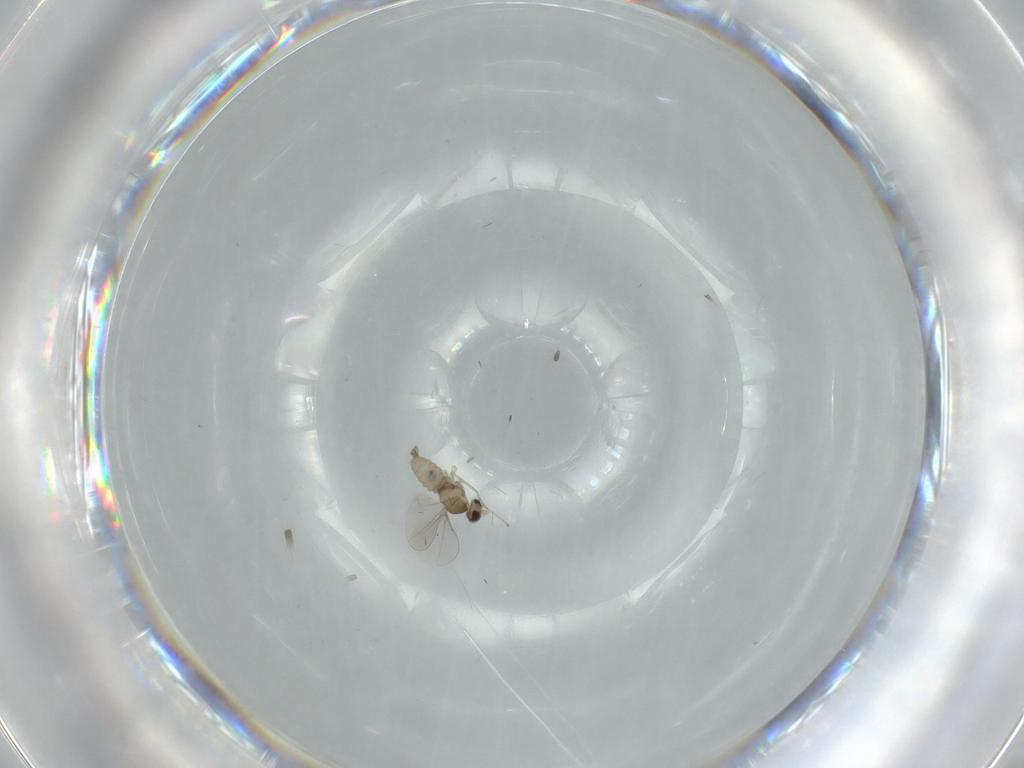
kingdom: Animalia
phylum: Arthropoda
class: Insecta
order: Diptera
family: Cecidomyiidae
